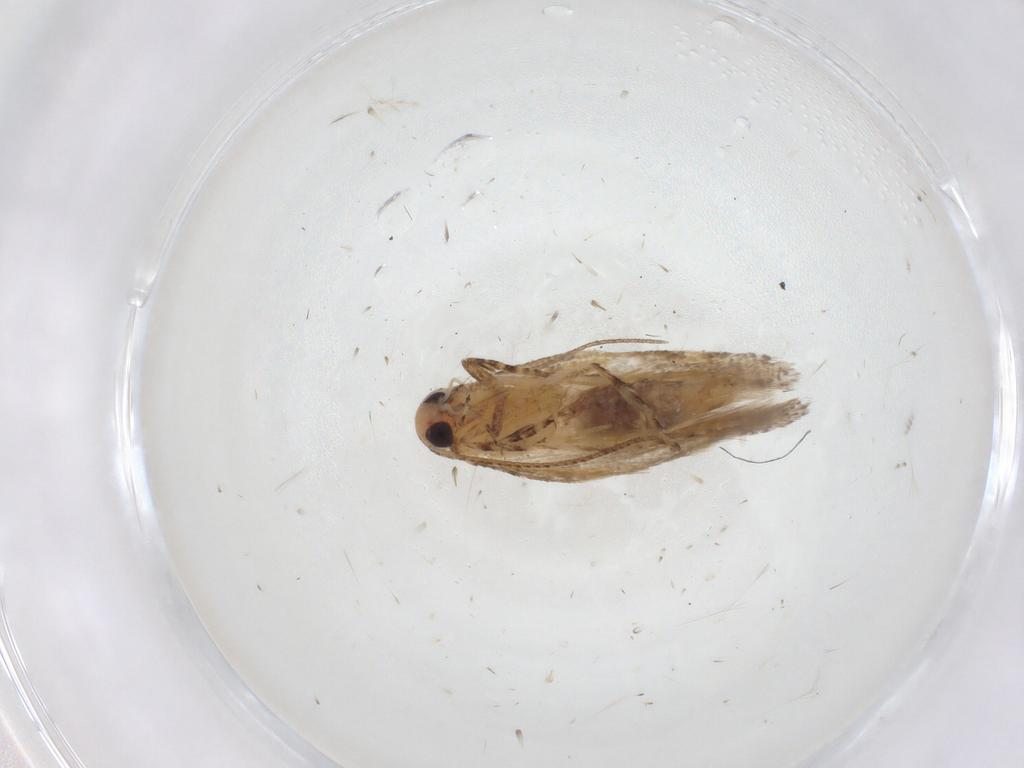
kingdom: Animalia
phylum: Arthropoda
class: Insecta
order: Lepidoptera
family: Gelechiidae
